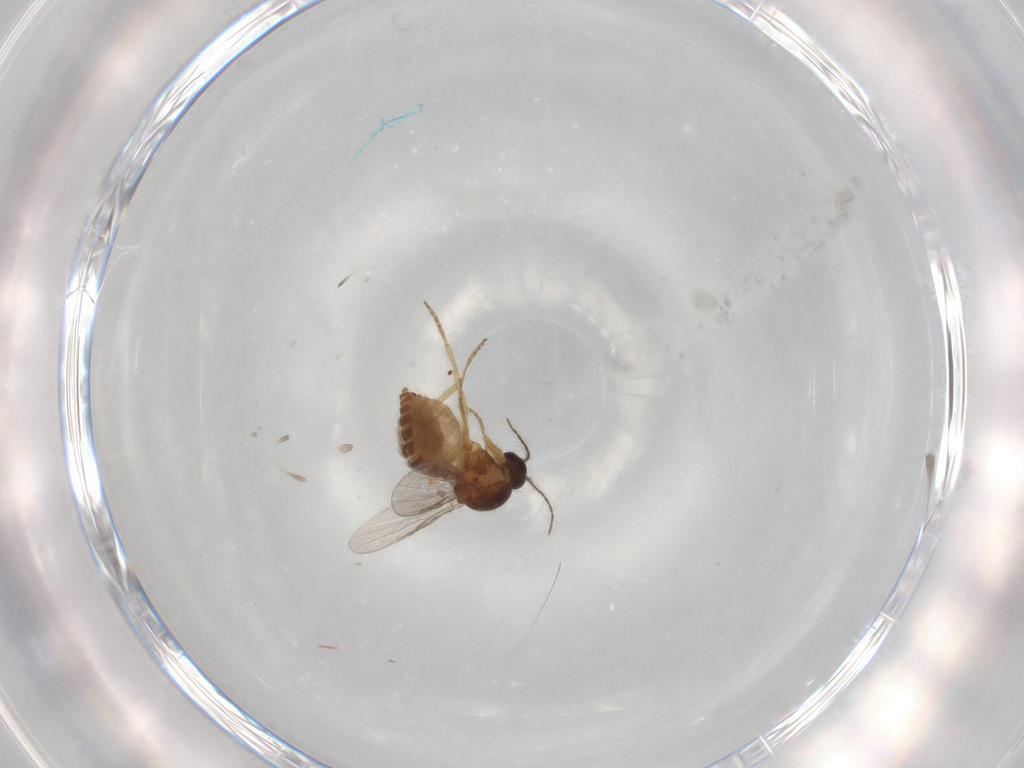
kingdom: Animalia
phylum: Arthropoda
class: Insecta
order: Diptera
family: Ceratopogonidae
